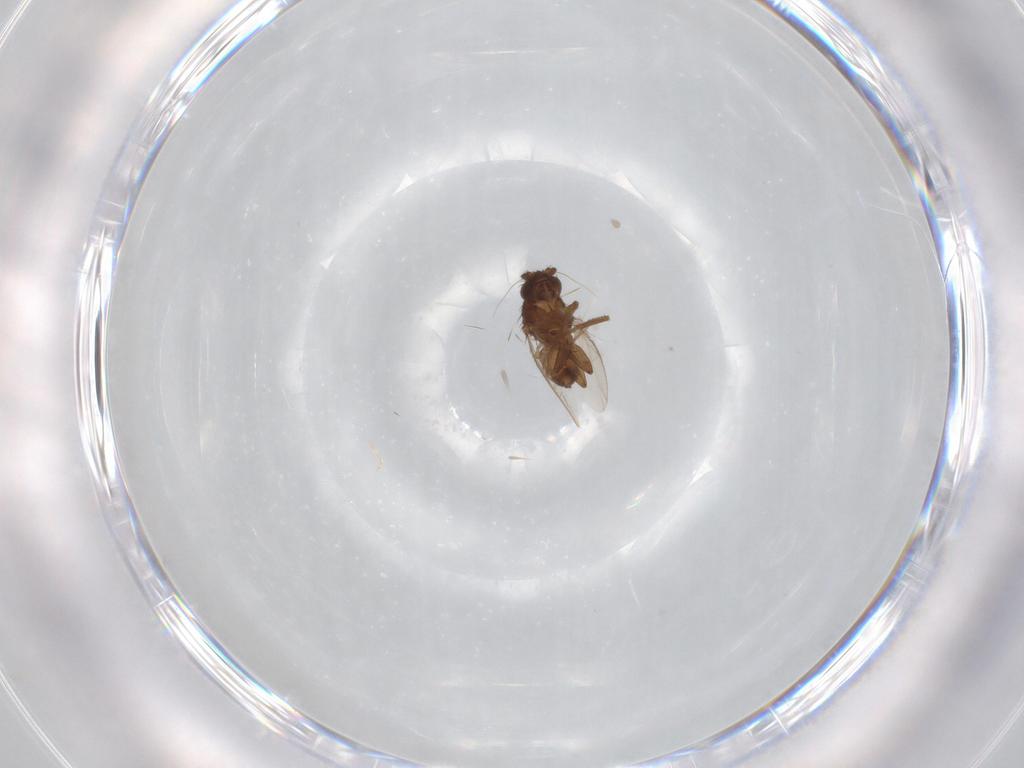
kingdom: Animalia
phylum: Arthropoda
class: Insecta
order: Diptera
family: Sphaeroceridae
